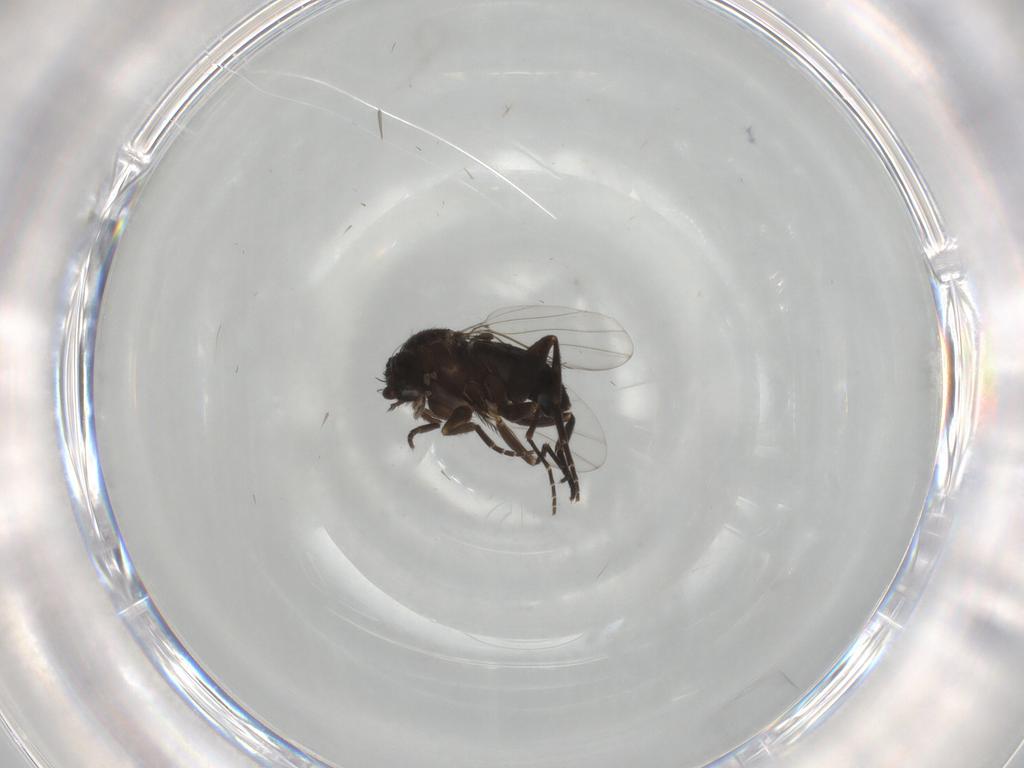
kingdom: Animalia
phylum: Arthropoda
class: Insecta
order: Diptera
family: Phoridae
